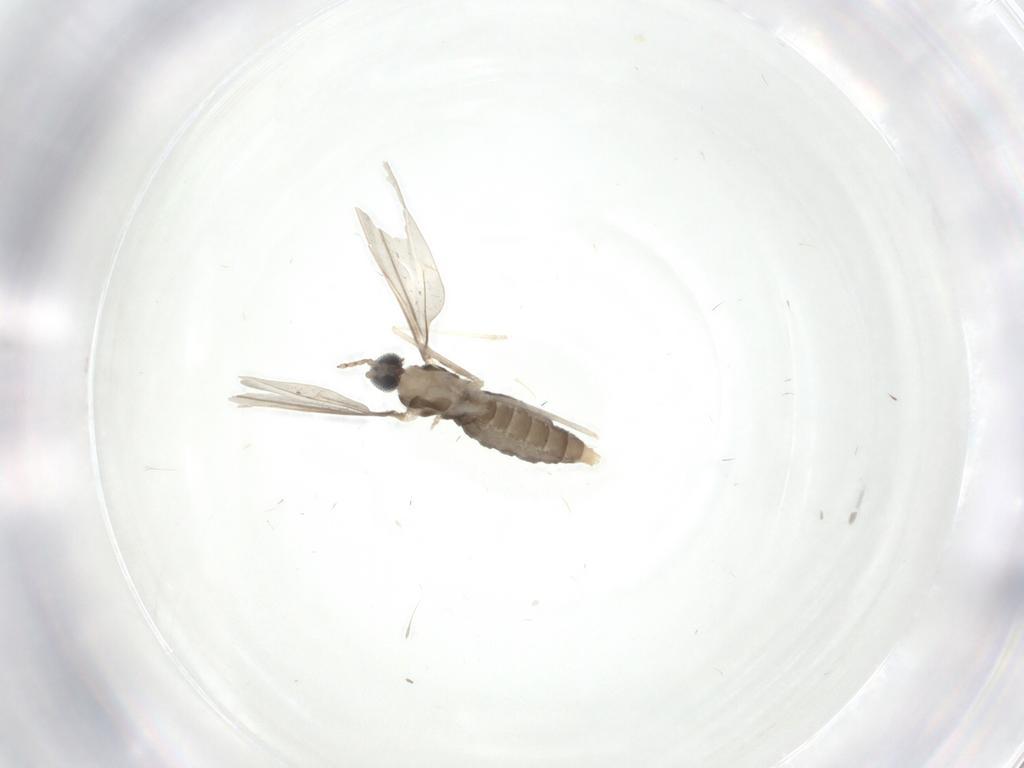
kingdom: Animalia
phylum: Arthropoda
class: Insecta
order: Diptera
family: Cecidomyiidae
